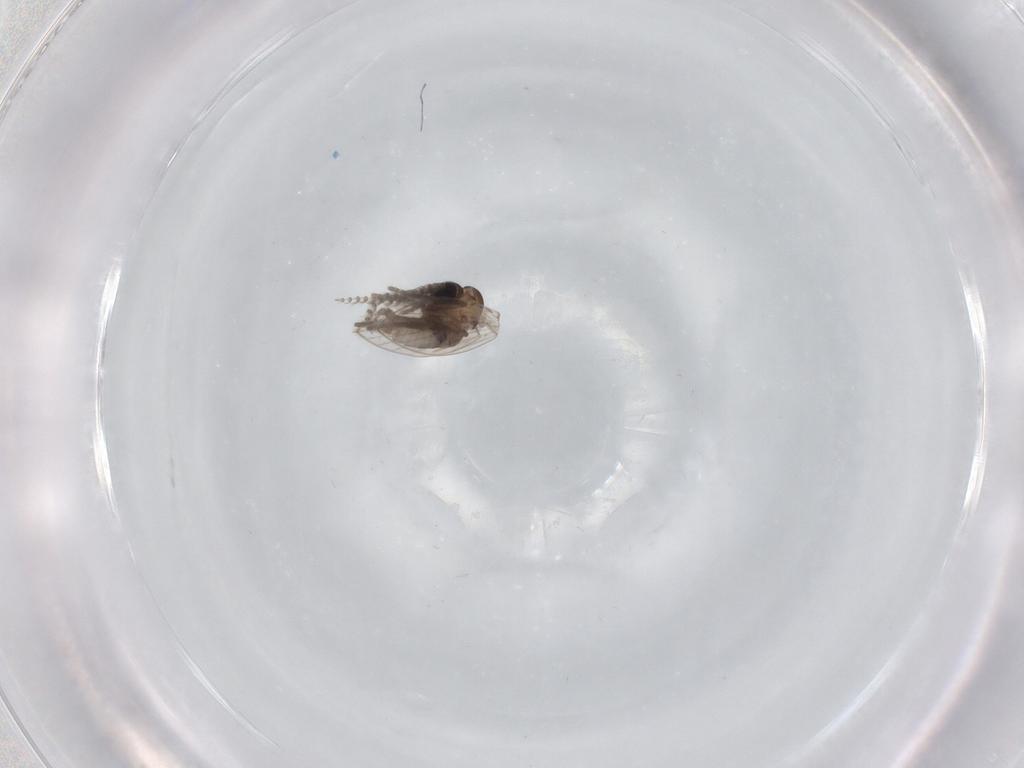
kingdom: Animalia
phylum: Arthropoda
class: Insecta
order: Diptera
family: Psychodidae
